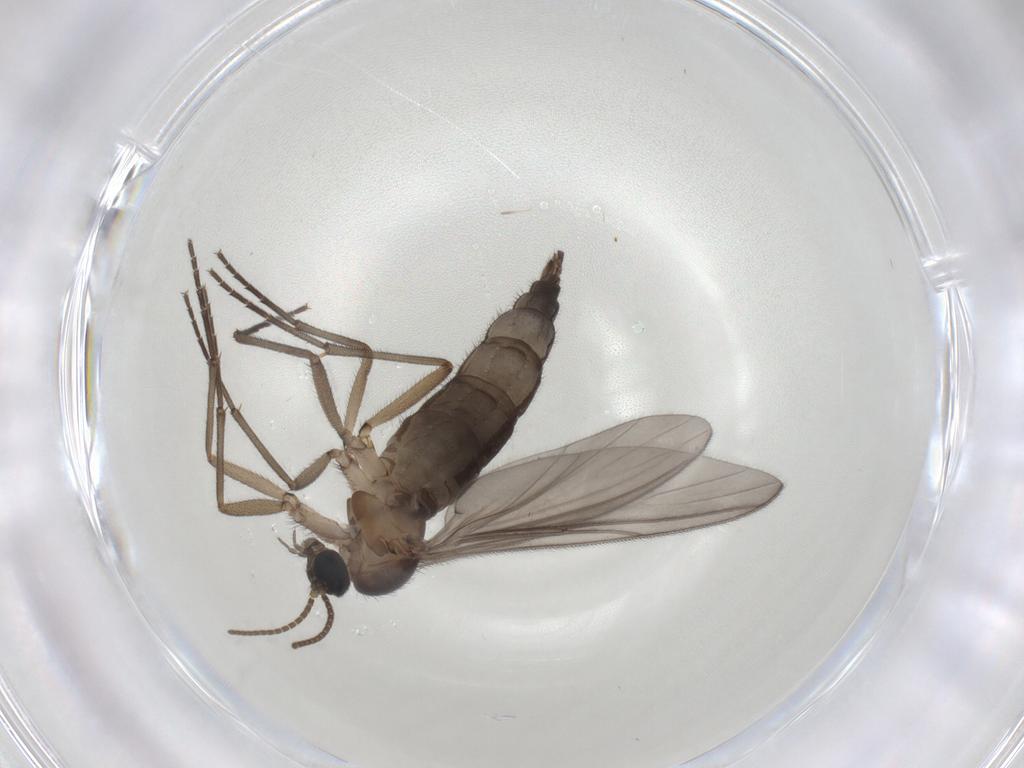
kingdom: Animalia
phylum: Arthropoda
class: Insecta
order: Diptera
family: Sciaridae
